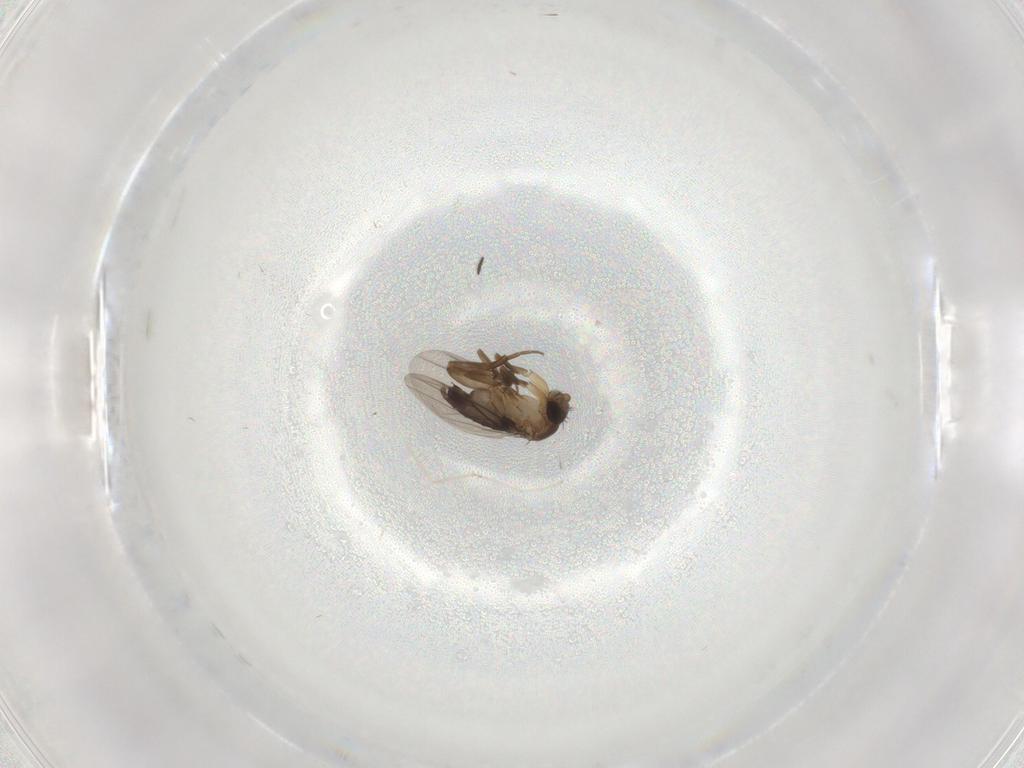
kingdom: Animalia
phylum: Arthropoda
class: Insecta
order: Diptera
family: Phoridae
